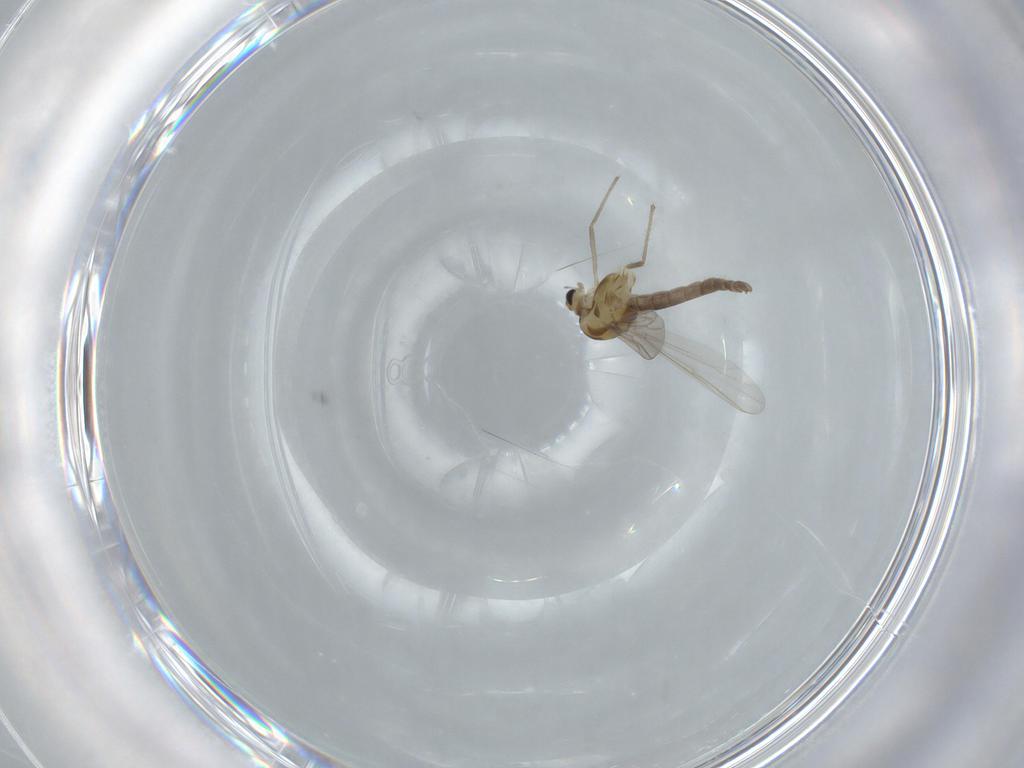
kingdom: Animalia
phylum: Arthropoda
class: Insecta
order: Diptera
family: Chironomidae
